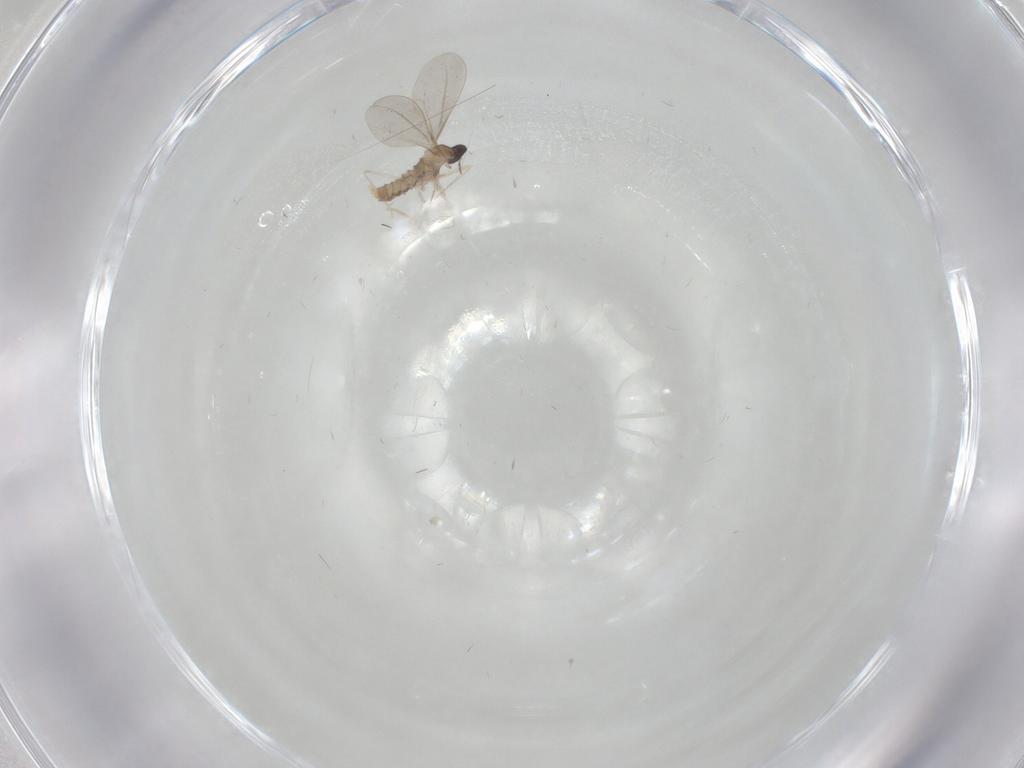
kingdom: Animalia
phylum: Arthropoda
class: Insecta
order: Diptera
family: Cecidomyiidae
